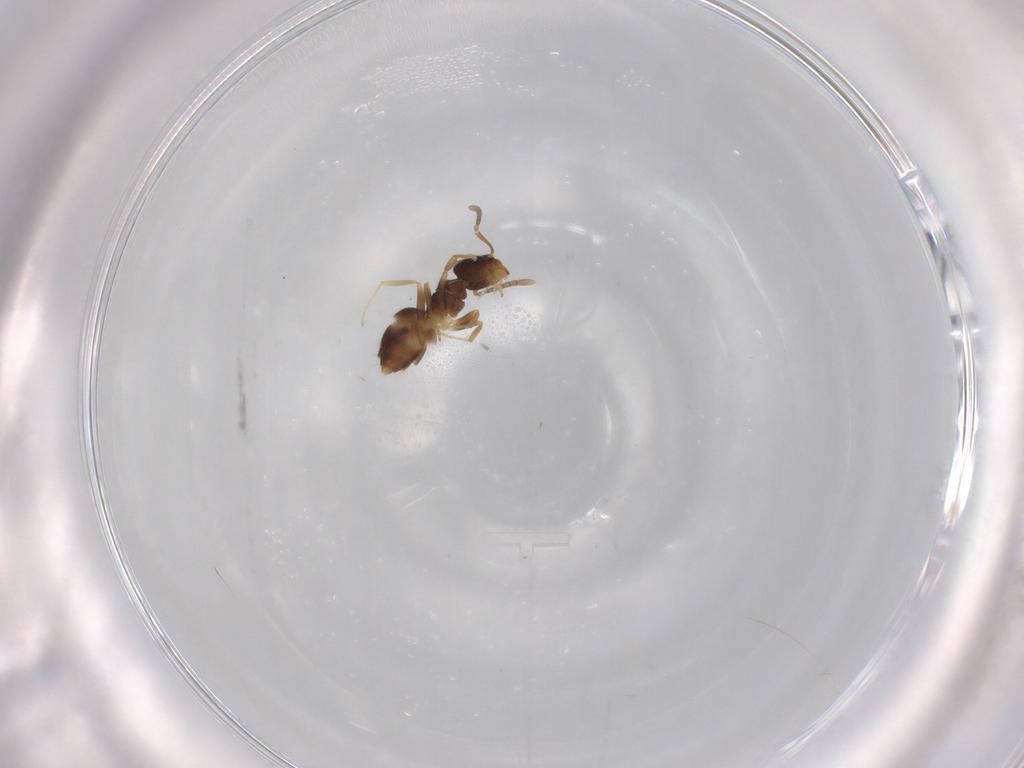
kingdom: Animalia
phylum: Arthropoda
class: Insecta
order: Hymenoptera
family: Formicidae
